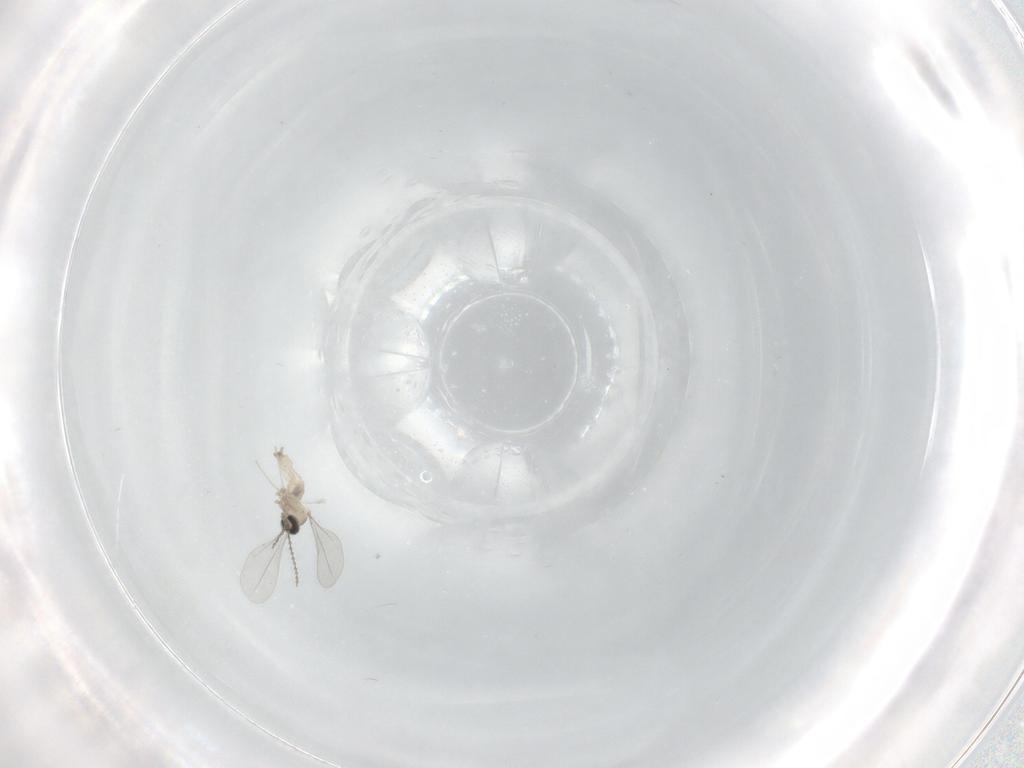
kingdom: Animalia
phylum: Arthropoda
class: Insecta
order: Diptera
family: Cecidomyiidae
